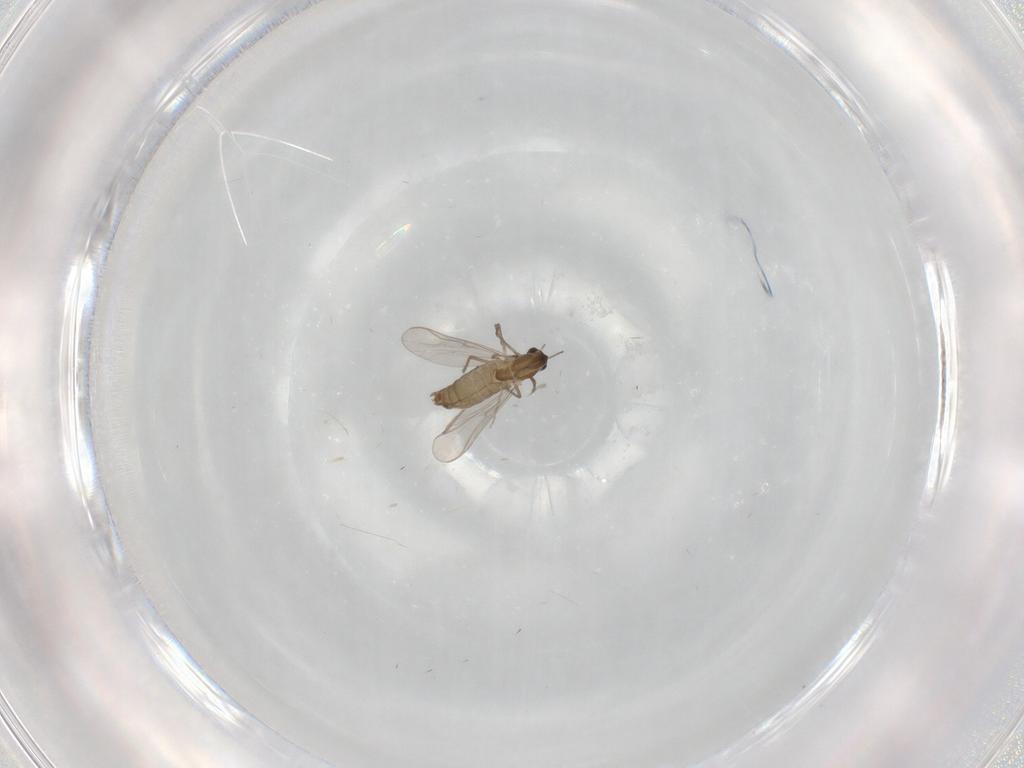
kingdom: Animalia
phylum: Arthropoda
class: Insecta
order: Diptera
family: Chironomidae
